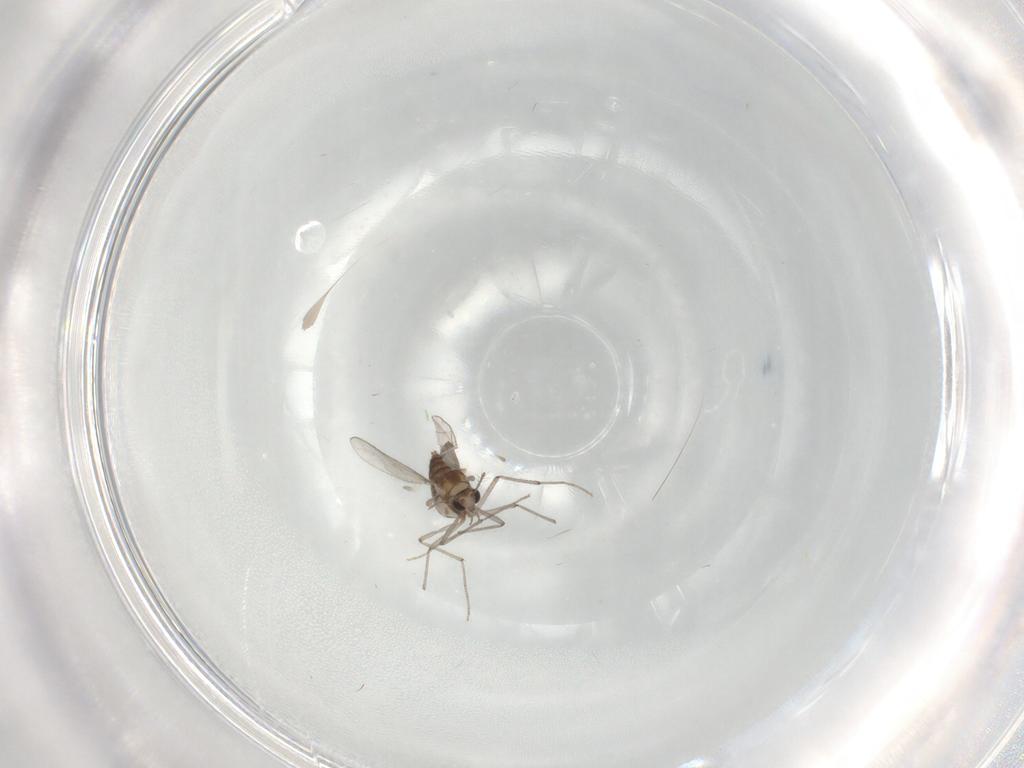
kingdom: Animalia
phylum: Arthropoda
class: Insecta
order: Diptera
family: Chironomidae
